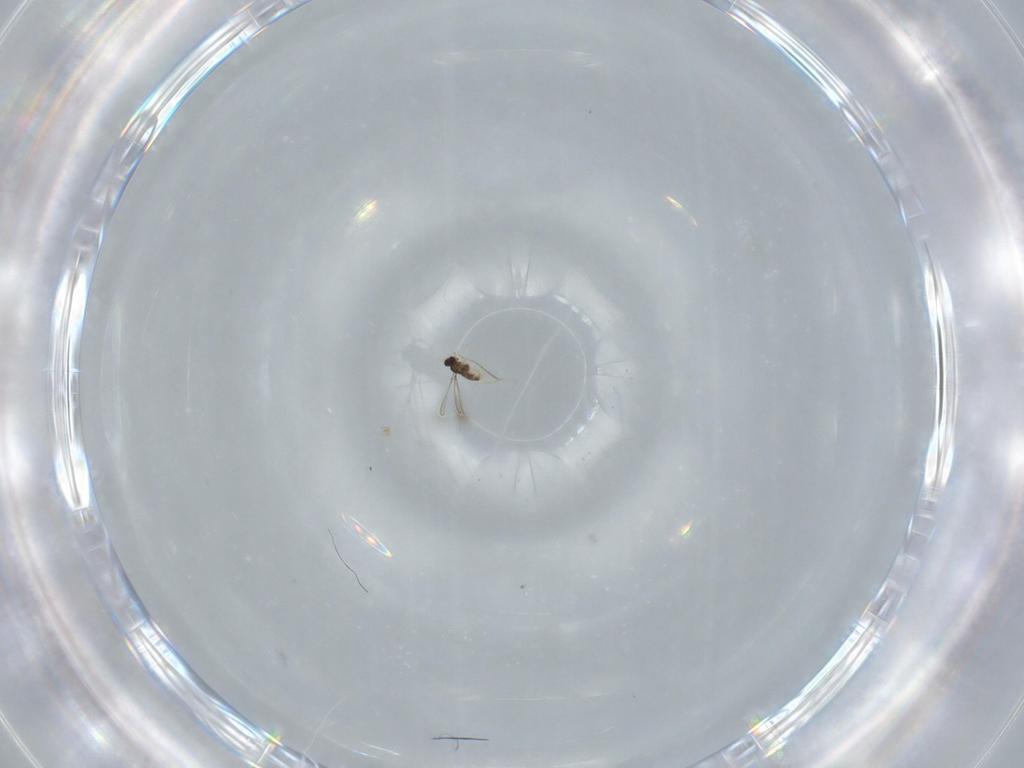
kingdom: Animalia
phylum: Arthropoda
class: Insecta
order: Hymenoptera
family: Mymaridae
